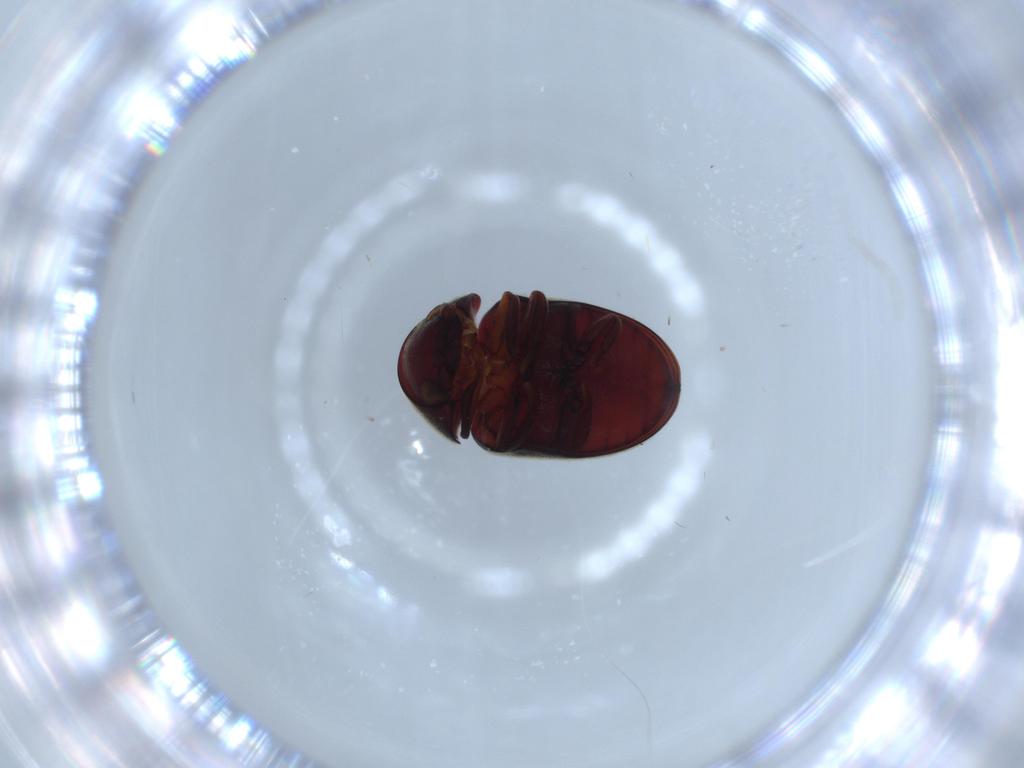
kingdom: Animalia
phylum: Arthropoda
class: Insecta
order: Coleoptera
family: Ptinidae
